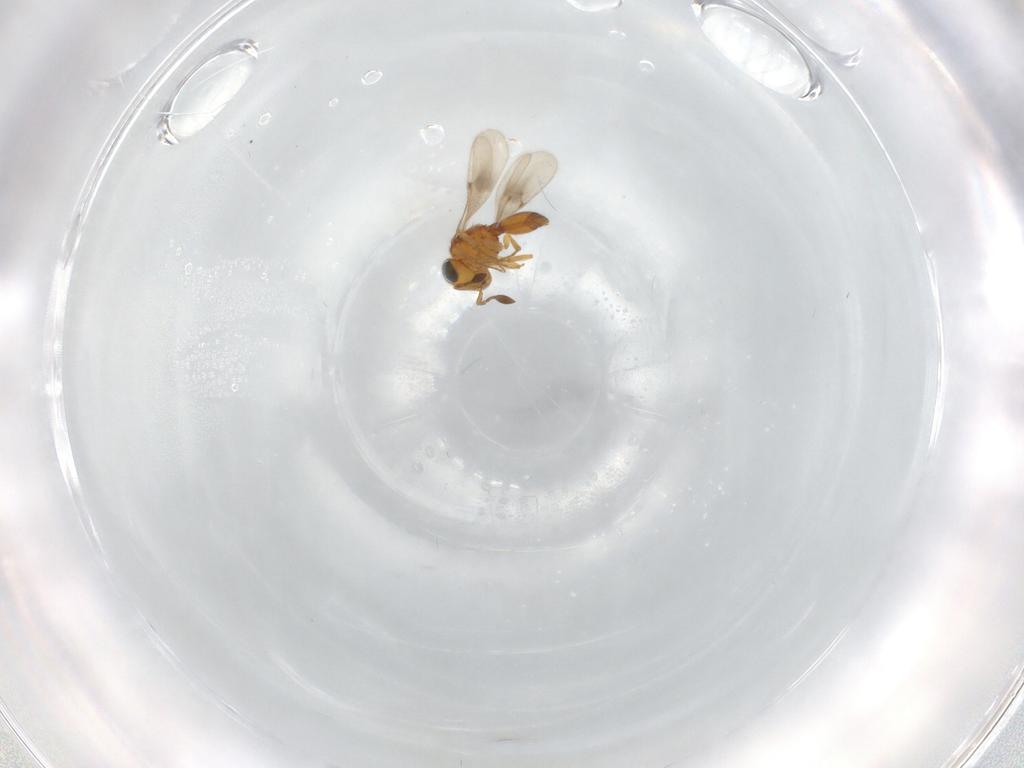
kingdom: Animalia
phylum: Arthropoda
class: Insecta
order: Hymenoptera
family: Scelionidae
